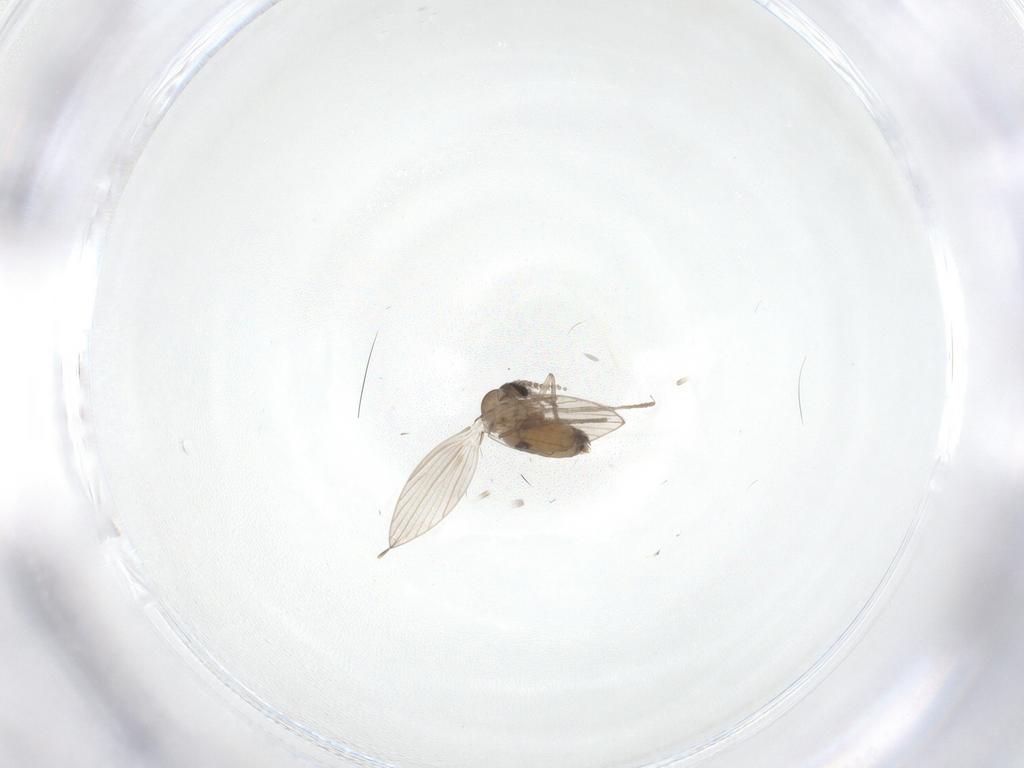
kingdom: Animalia
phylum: Arthropoda
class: Insecta
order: Diptera
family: Psychodidae
